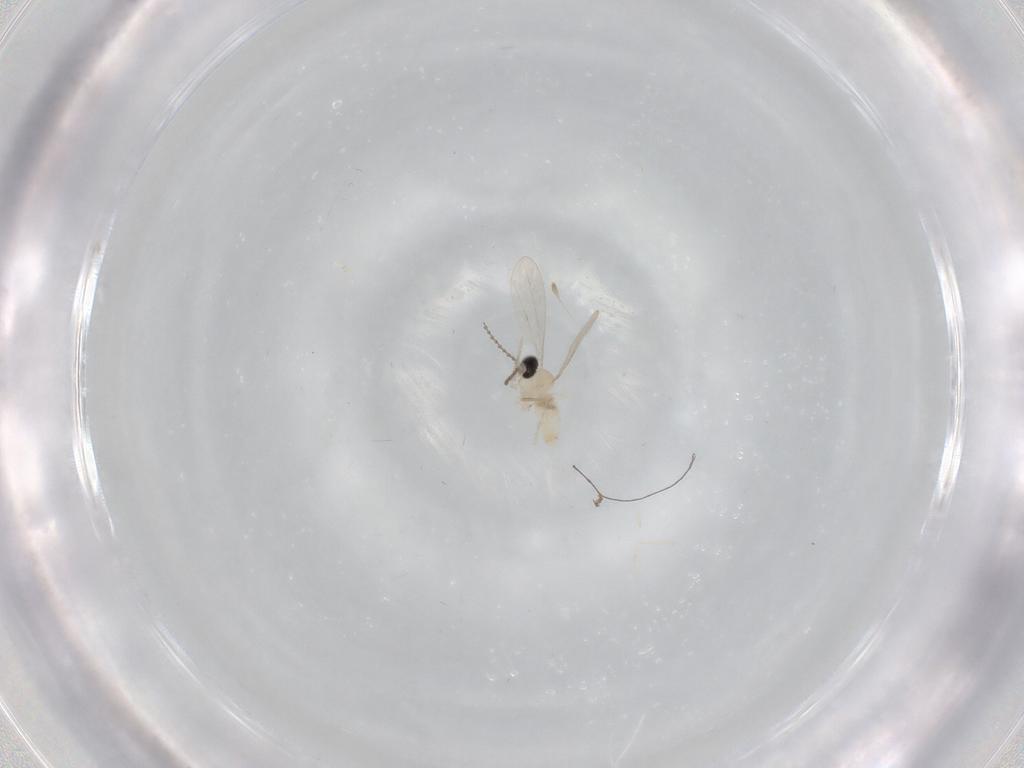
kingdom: Animalia
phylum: Arthropoda
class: Insecta
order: Diptera
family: Cecidomyiidae
